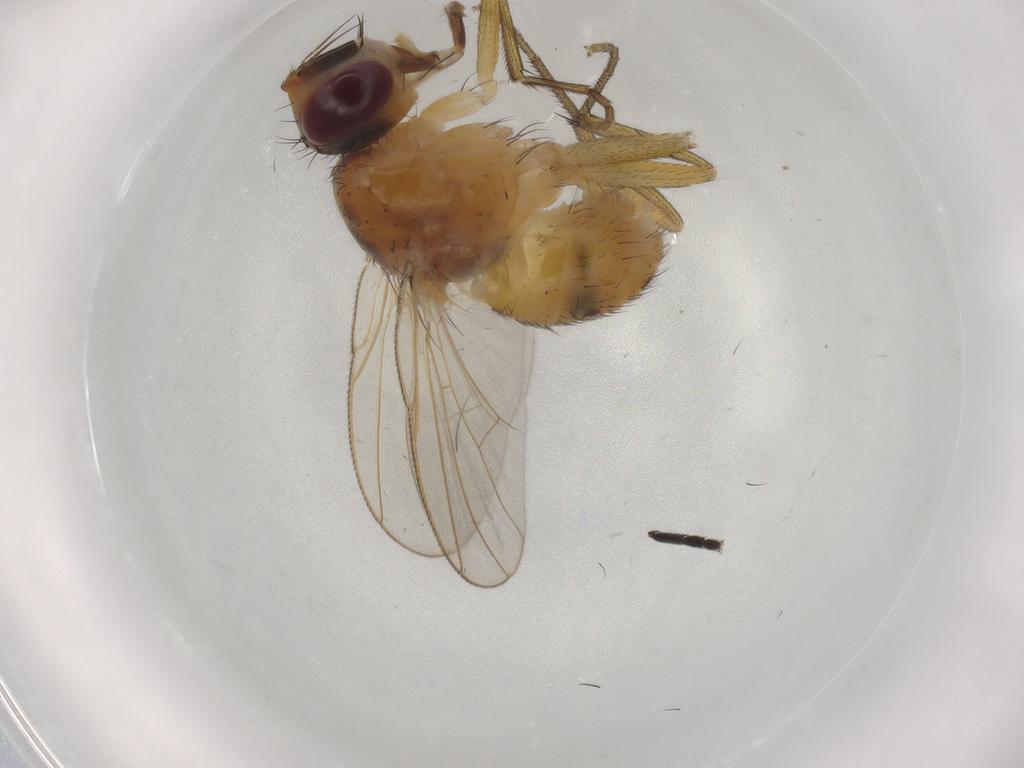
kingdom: Animalia
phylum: Arthropoda
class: Insecta
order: Diptera
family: Muscidae
